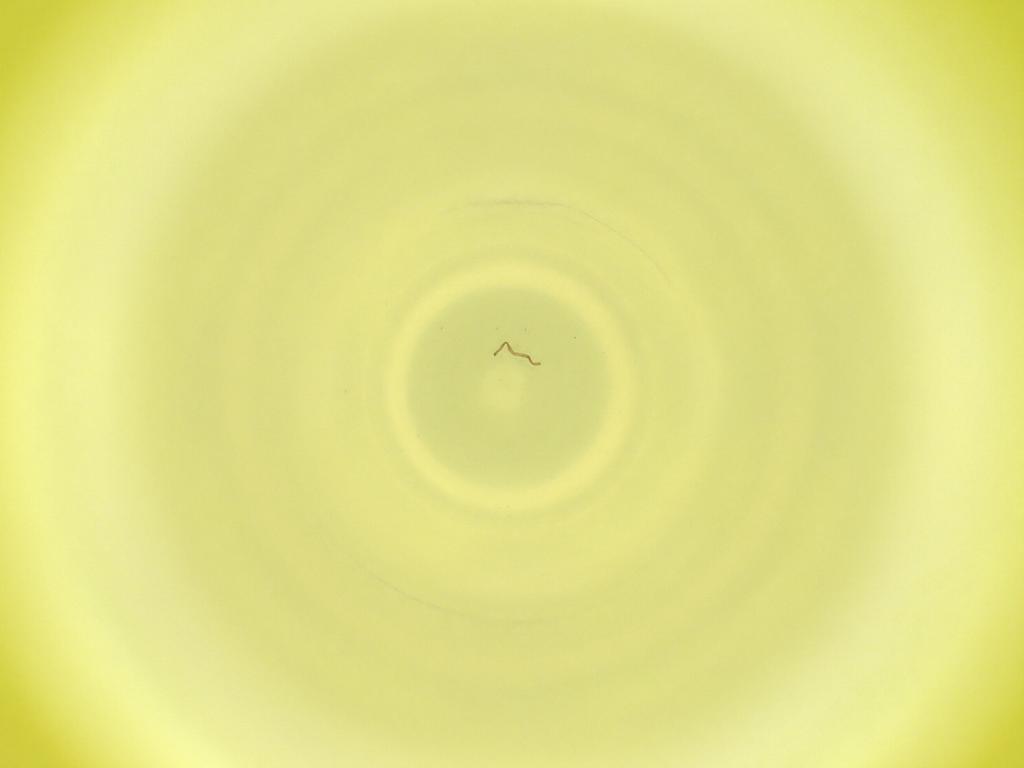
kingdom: Animalia
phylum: Arthropoda
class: Insecta
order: Diptera
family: Cecidomyiidae
